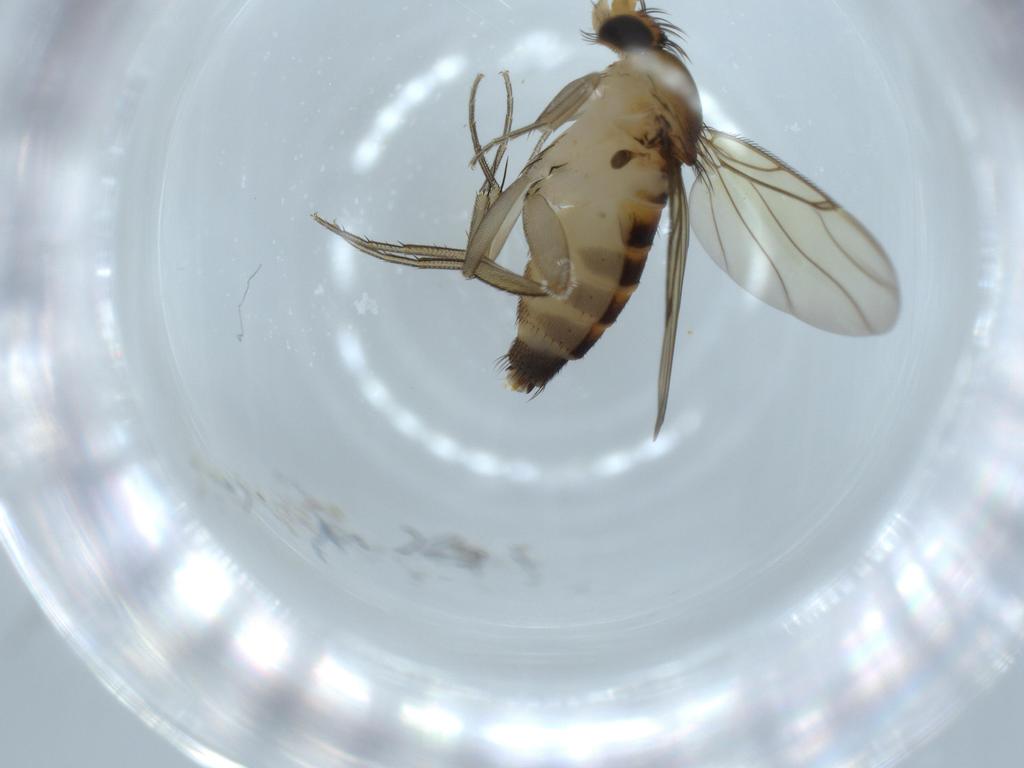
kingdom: Animalia
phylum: Arthropoda
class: Insecta
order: Diptera
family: Phoridae
